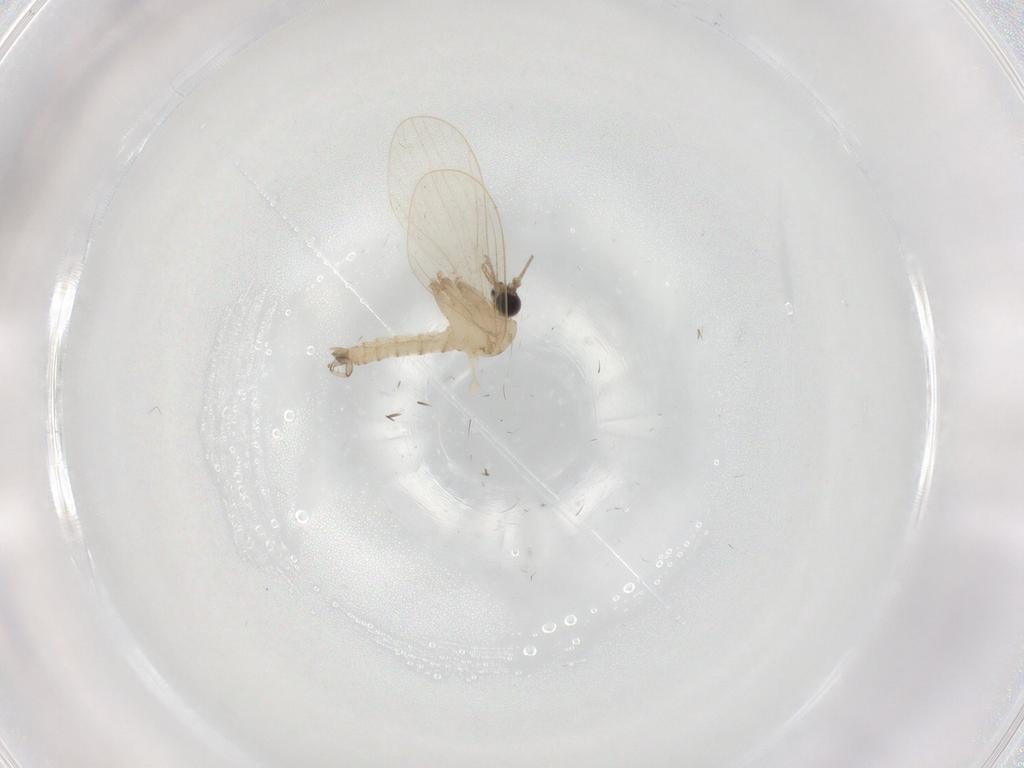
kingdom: Animalia
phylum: Arthropoda
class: Insecta
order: Diptera
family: Psychodidae
